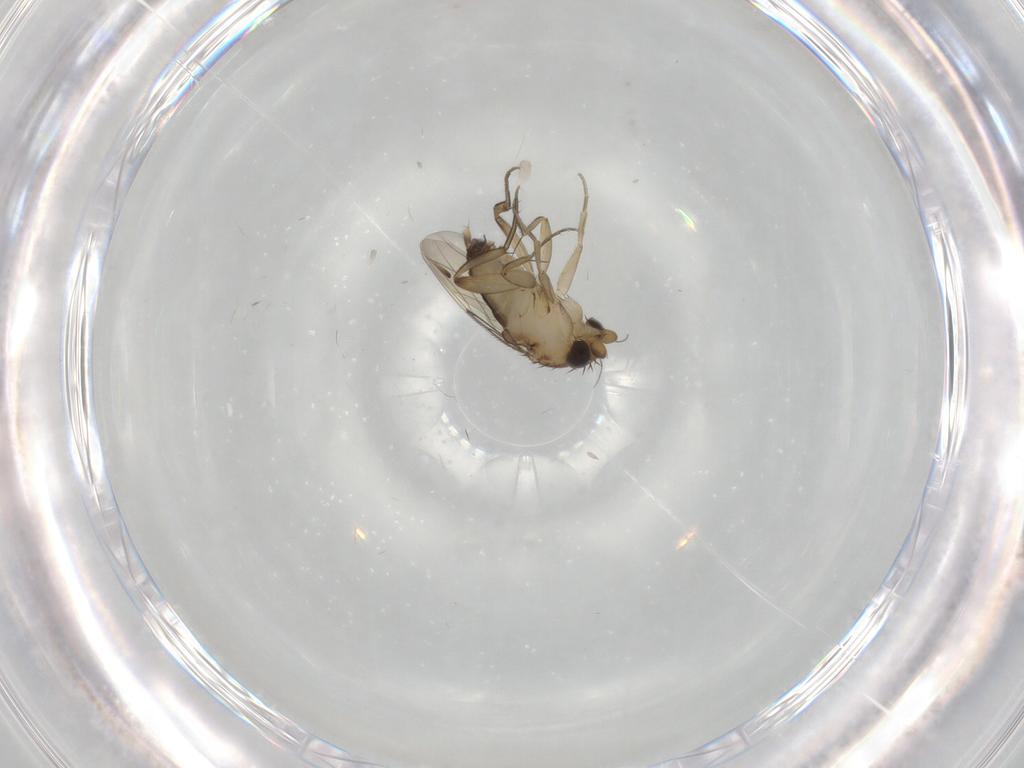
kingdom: Animalia
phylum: Arthropoda
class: Insecta
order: Diptera
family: Phoridae
